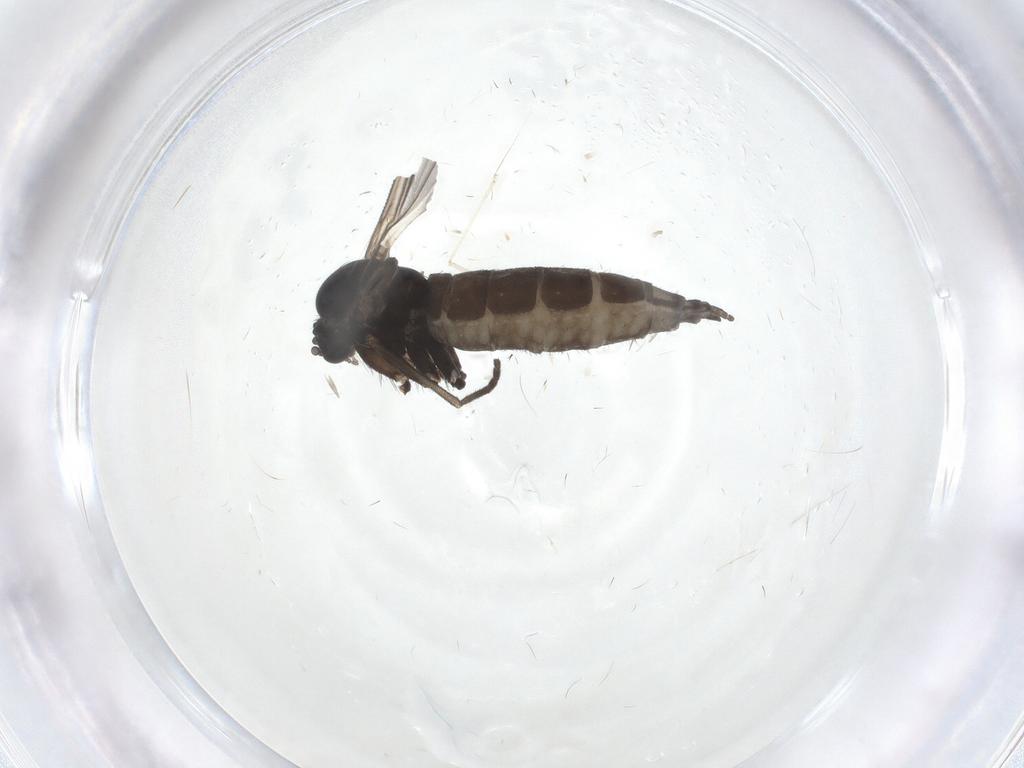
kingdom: Animalia
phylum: Arthropoda
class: Insecta
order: Diptera
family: Sciaridae
